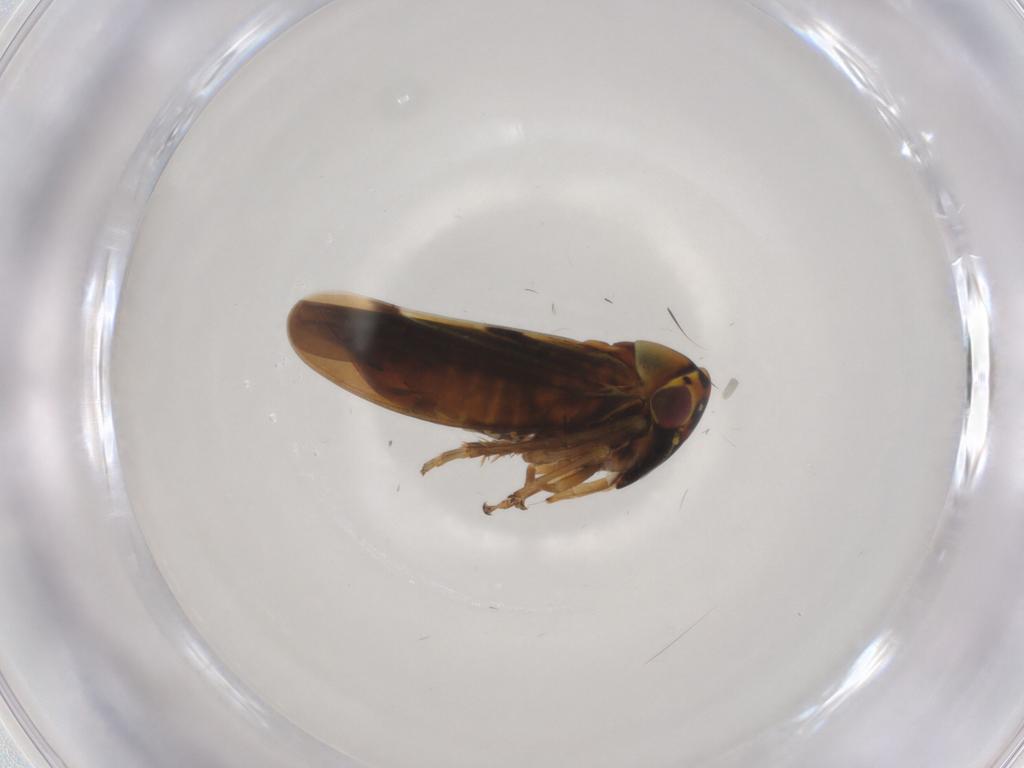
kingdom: Animalia
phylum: Arthropoda
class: Insecta
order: Hemiptera
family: Cicadellidae
